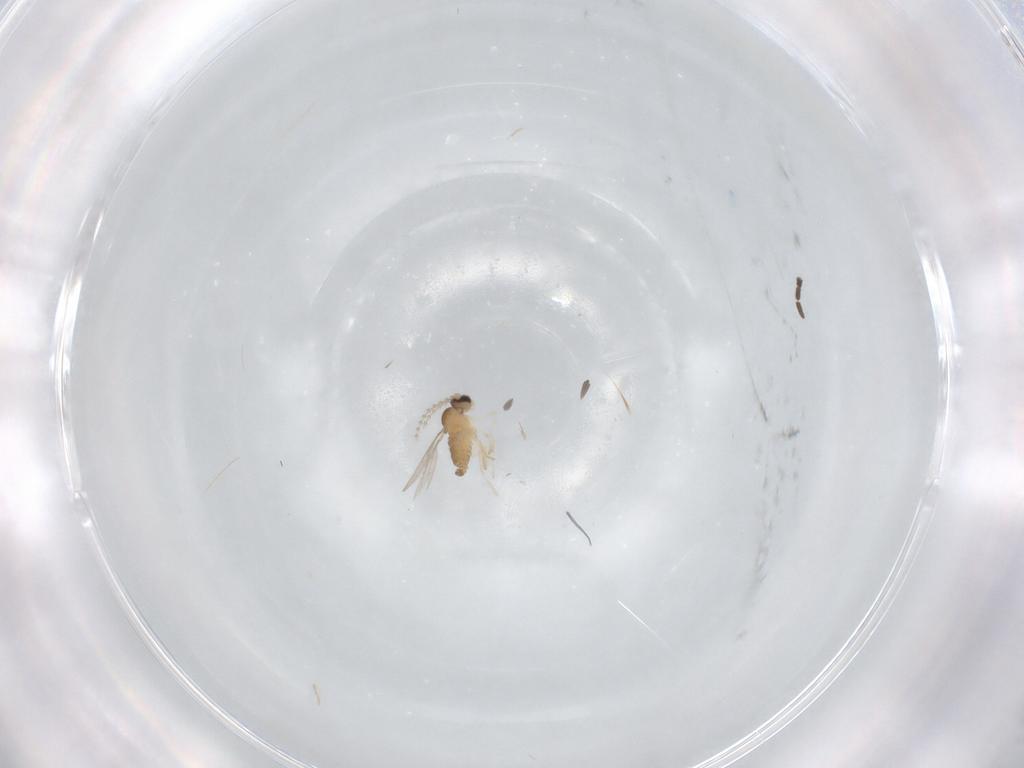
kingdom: Animalia
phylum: Arthropoda
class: Insecta
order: Diptera
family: Cecidomyiidae
